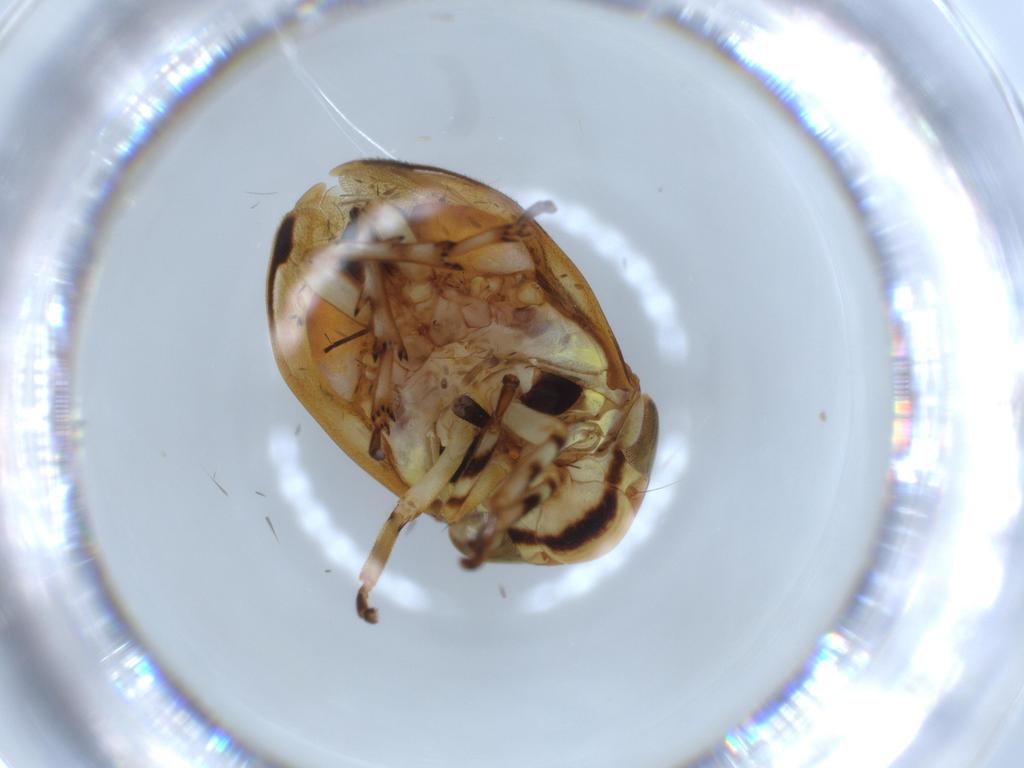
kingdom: Animalia
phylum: Arthropoda
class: Insecta
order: Hemiptera
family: Clastopteridae
